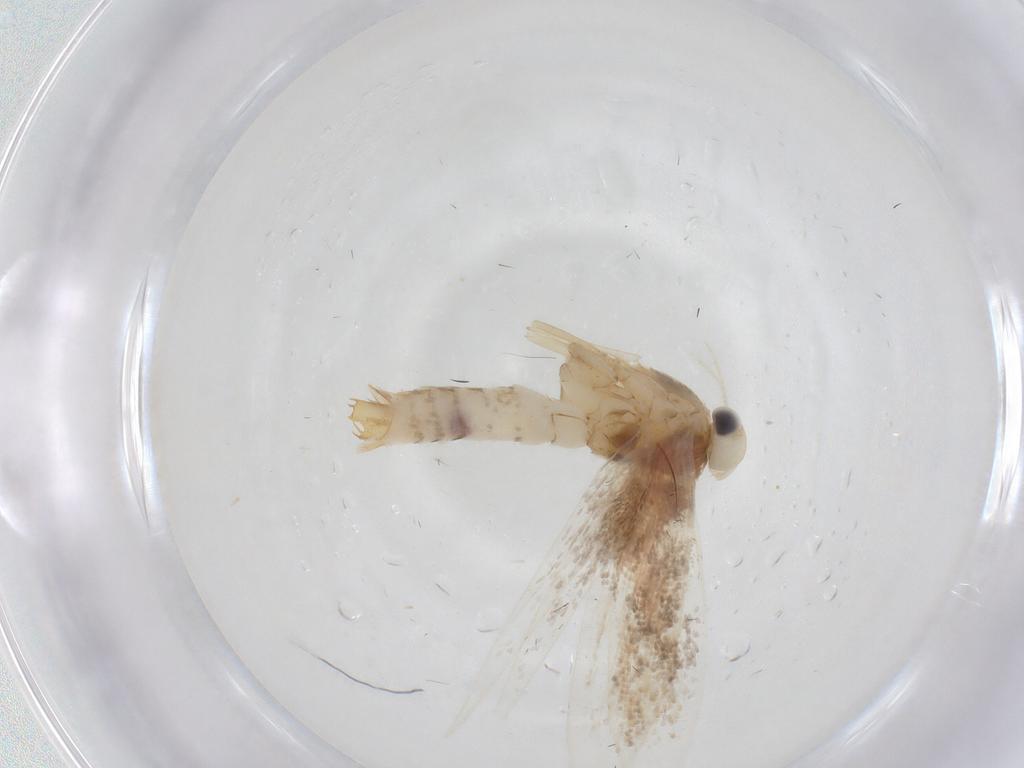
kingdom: Animalia
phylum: Arthropoda
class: Insecta
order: Lepidoptera
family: Gracillariidae
